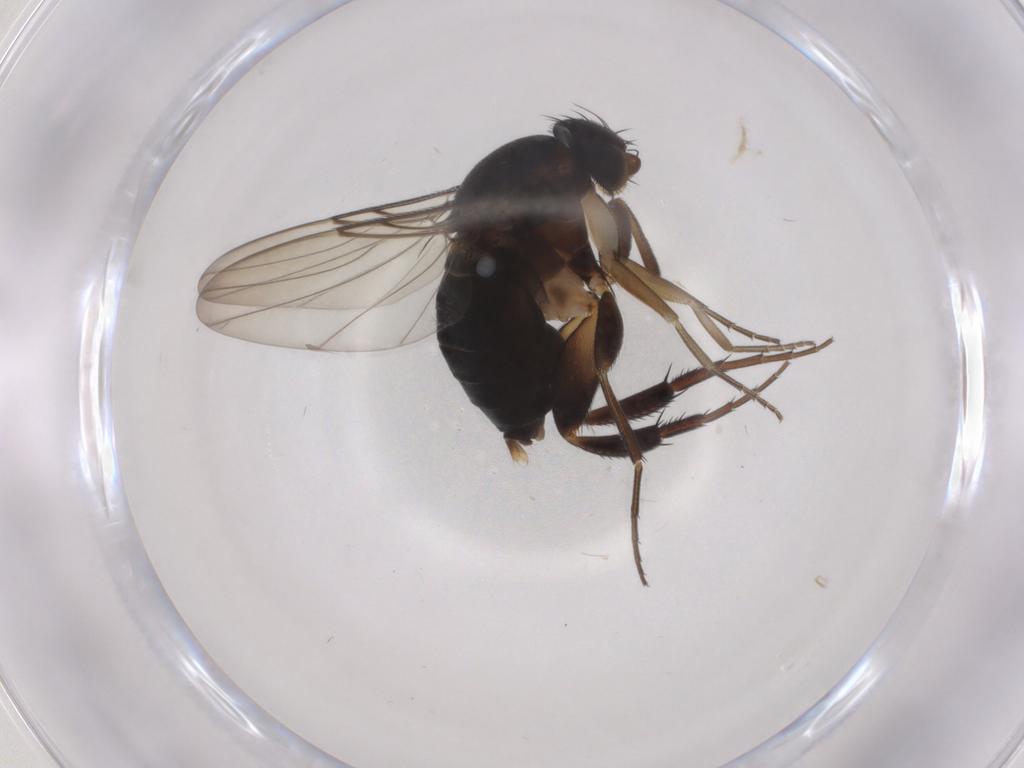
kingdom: Animalia
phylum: Arthropoda
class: Insecta
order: Diptera
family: Phoridae
